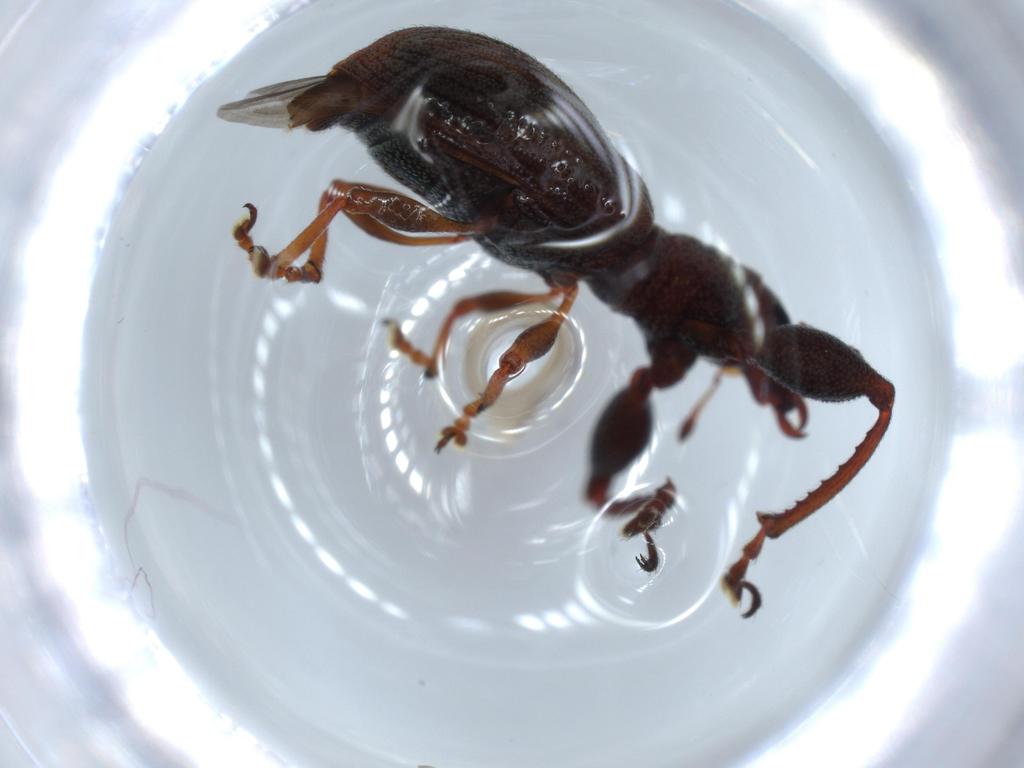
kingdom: Animalia
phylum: Arthropoda
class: Insecta
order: Coleoptera
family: Curculionidae
